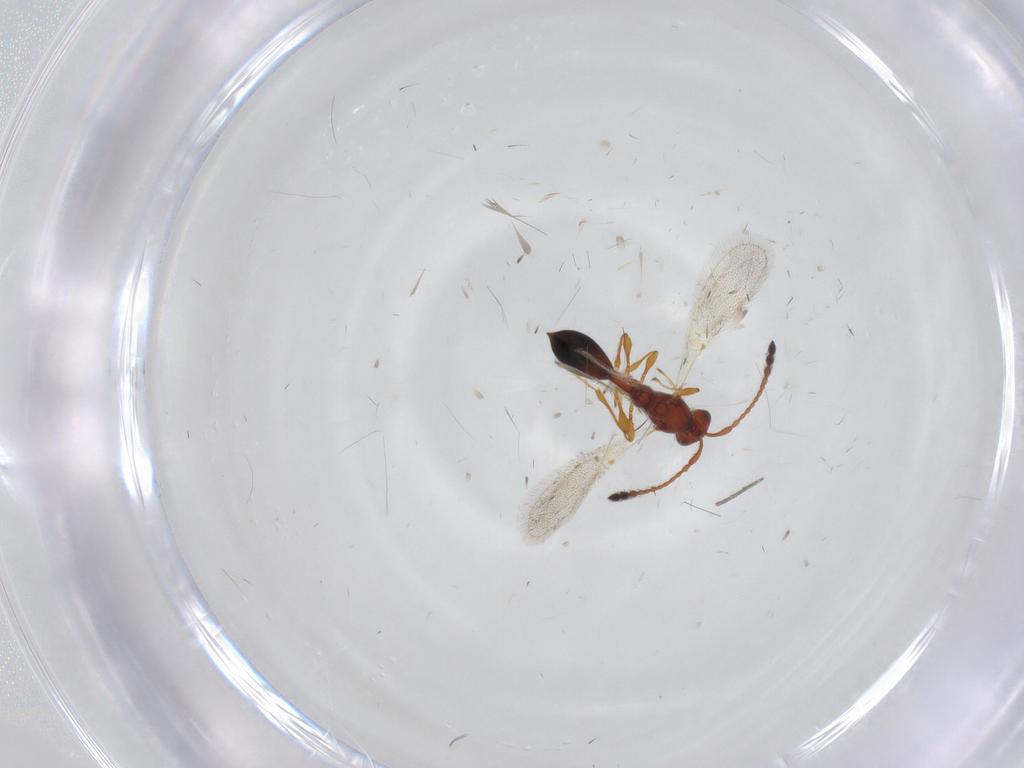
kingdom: Animalia
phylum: Arthropoda
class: Insecta
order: Hymenoptera
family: Diapriidae
